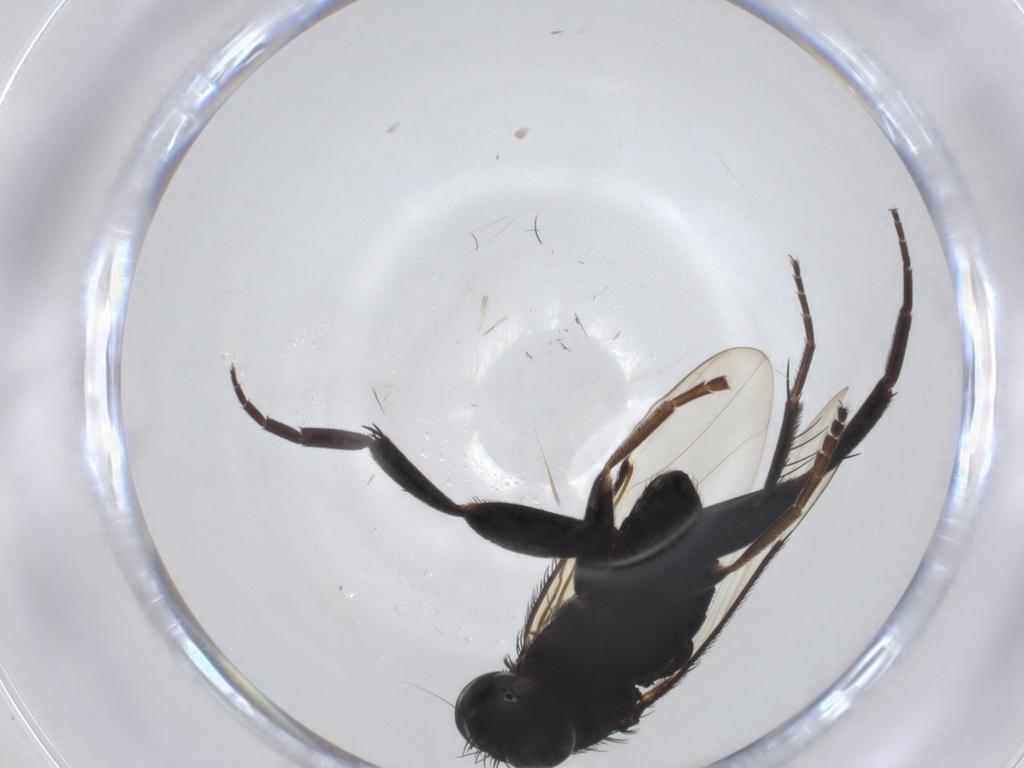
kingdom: Animalia
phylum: Arthropoda
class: Insecta
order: Diptera
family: Phoridae
